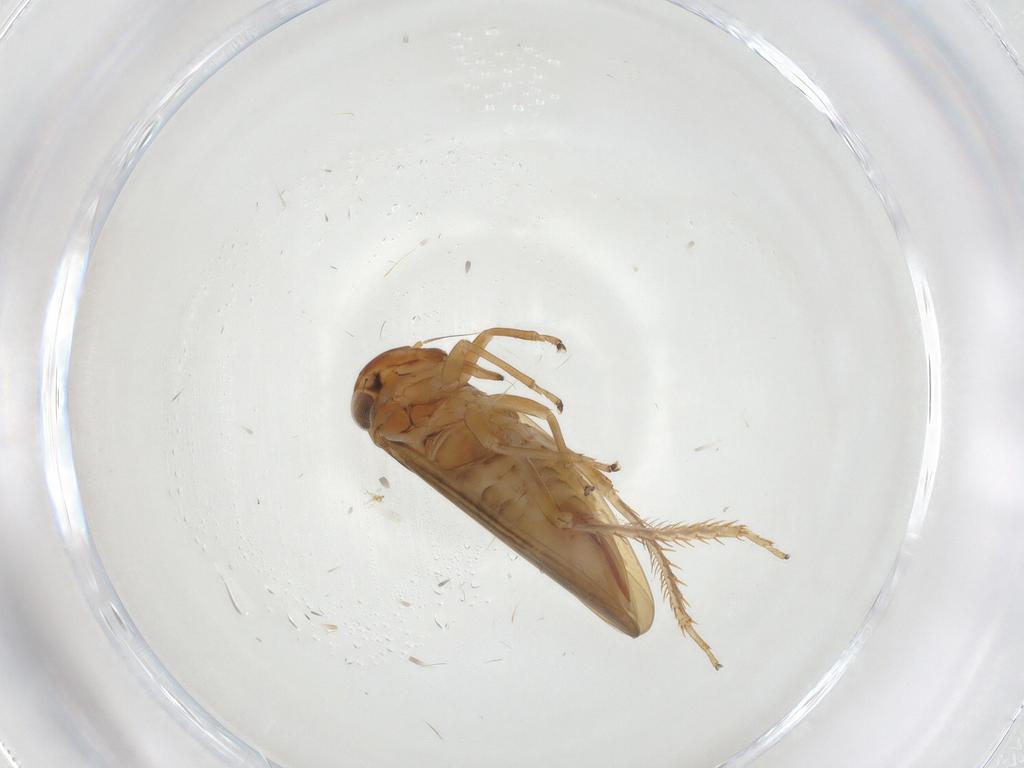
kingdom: Animalia
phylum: Arthropoda
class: Insecta
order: Hemiptera
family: Cicadellidae
